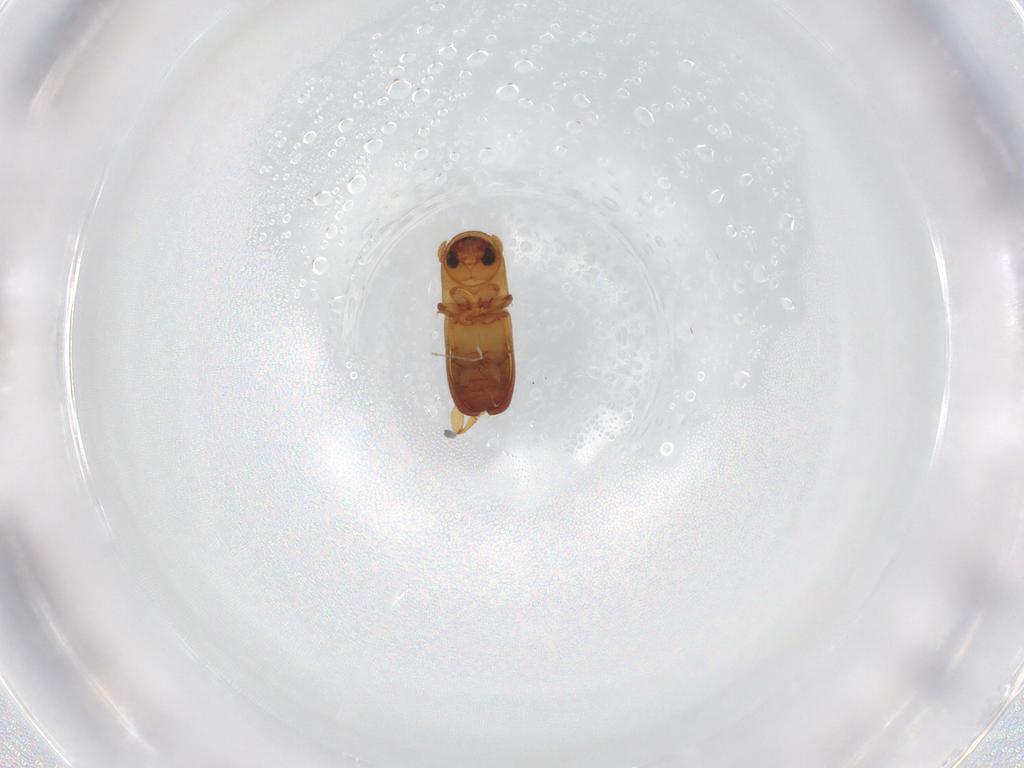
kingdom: Animalia
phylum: Arthropoda
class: Insecta
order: Coleoptera
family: Curculionidae
